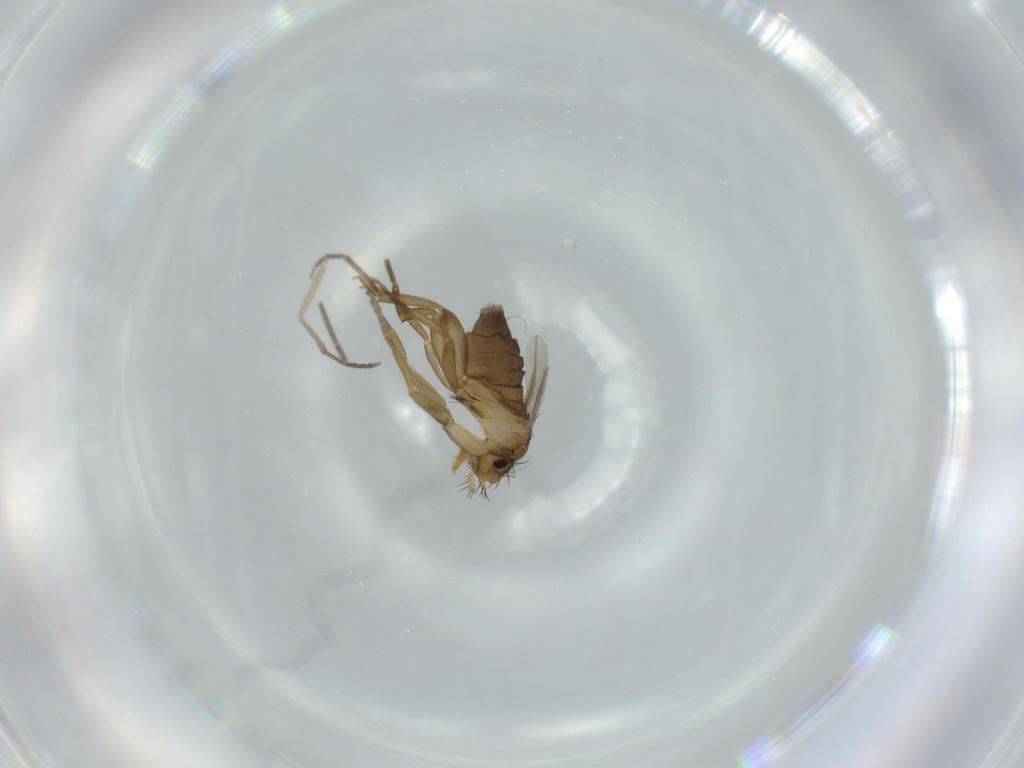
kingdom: Animalia
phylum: Arthropoda
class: Insecta
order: Diptera
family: Phoridae
